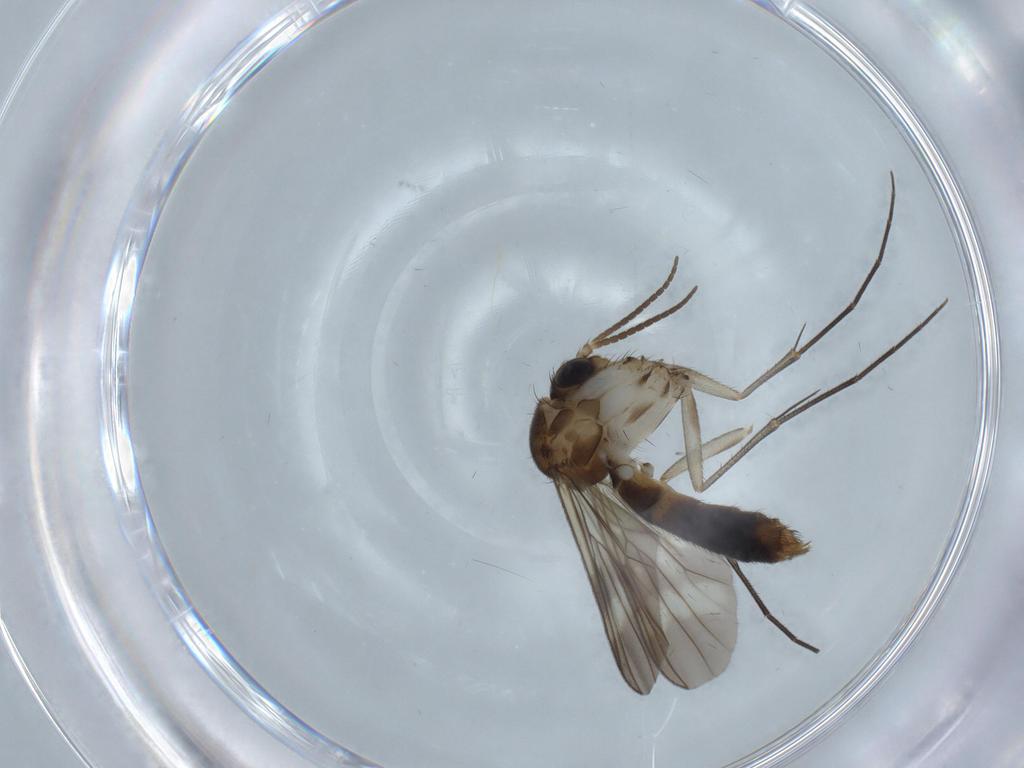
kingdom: Animalia
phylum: Arthropoda
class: Insecta
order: Diptera
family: Mycetophilidae
